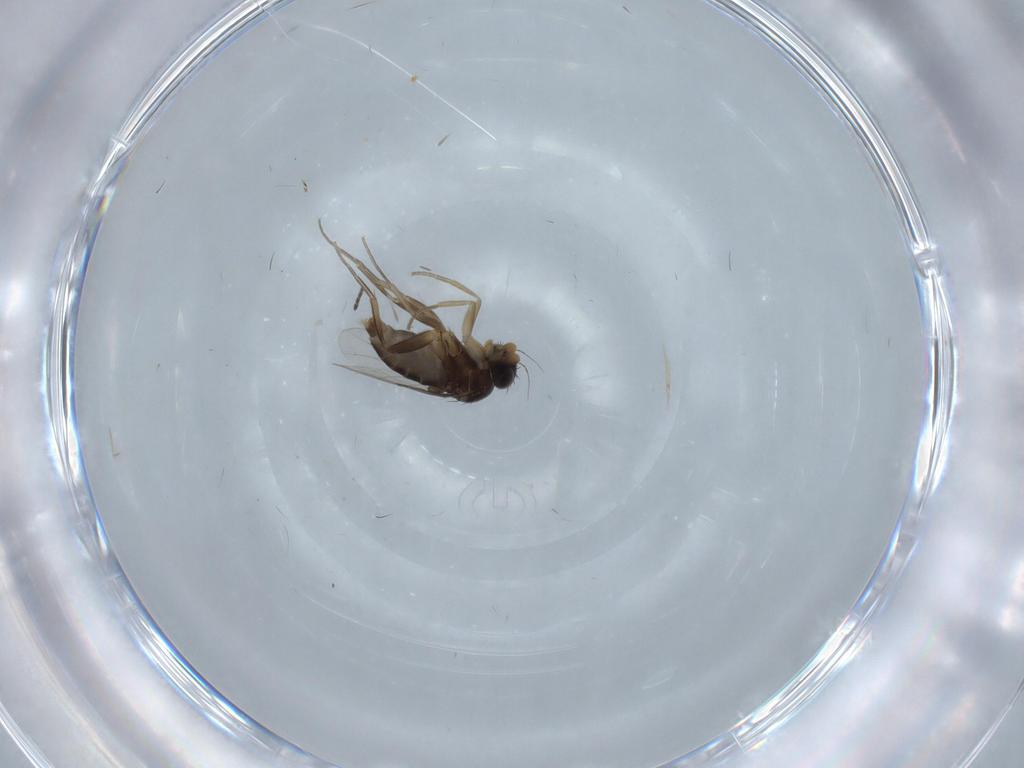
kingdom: Animalia
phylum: Arthropoda
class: Insecta
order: Diptera
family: Phoridae
